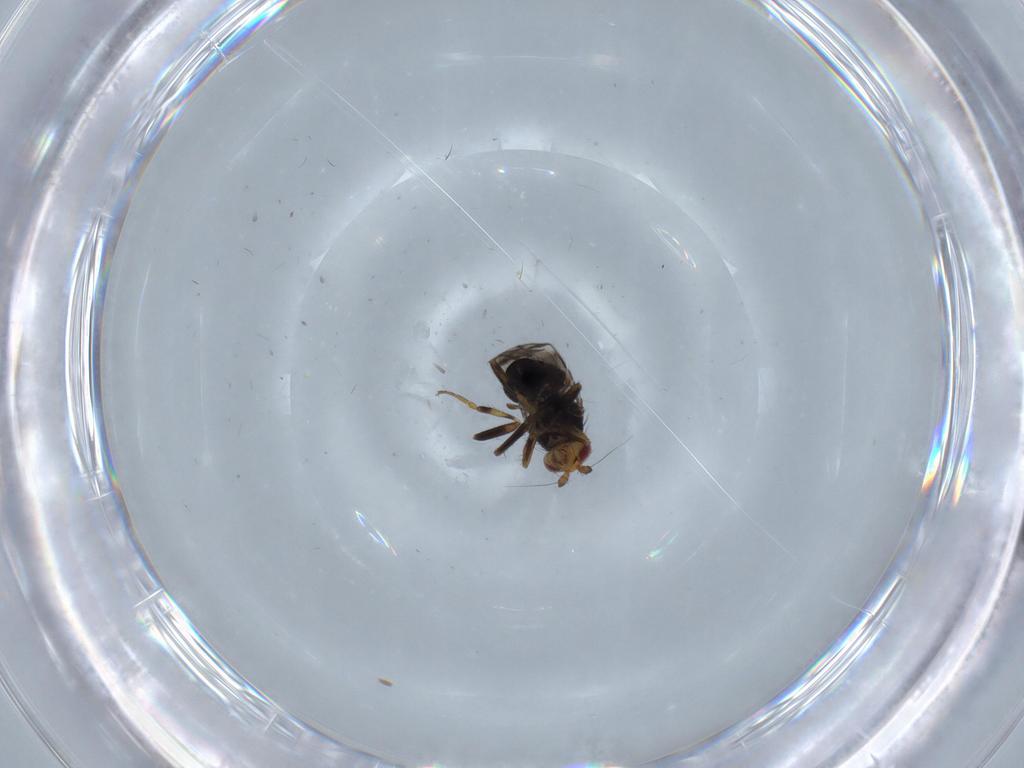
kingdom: Animalia
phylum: Arthropoda
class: Insecta
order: Diptera
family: Sphaeroceridae
